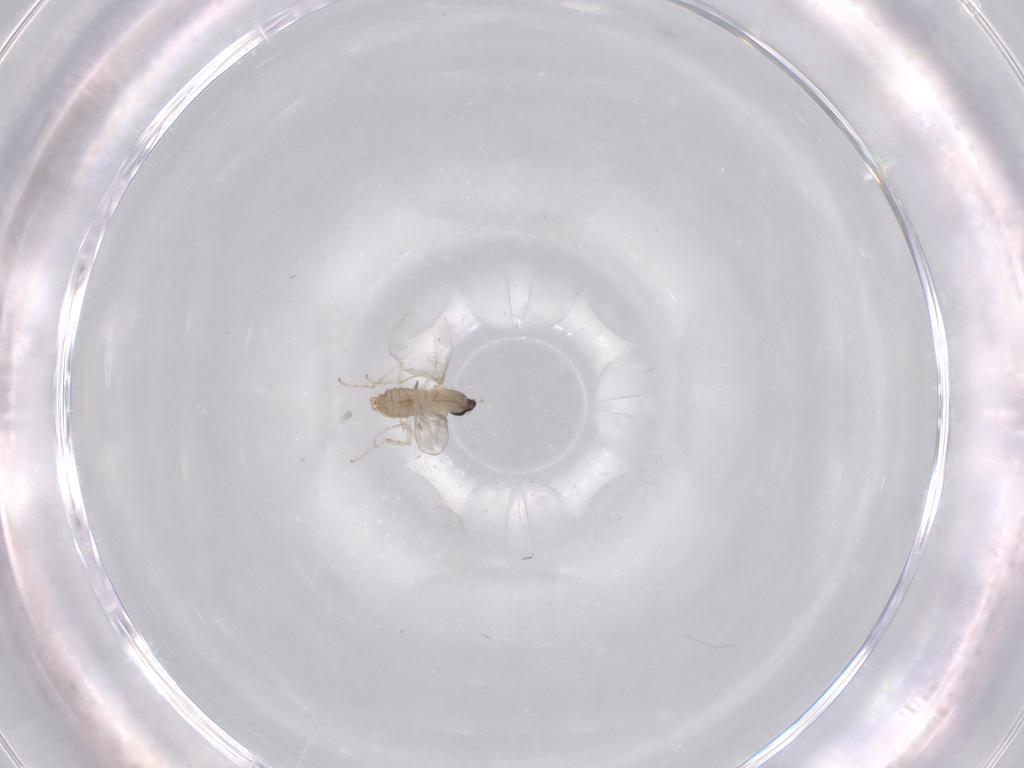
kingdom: Animalia
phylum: Arthropoda
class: Insecta
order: Diptera
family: Cecidomyiidae
